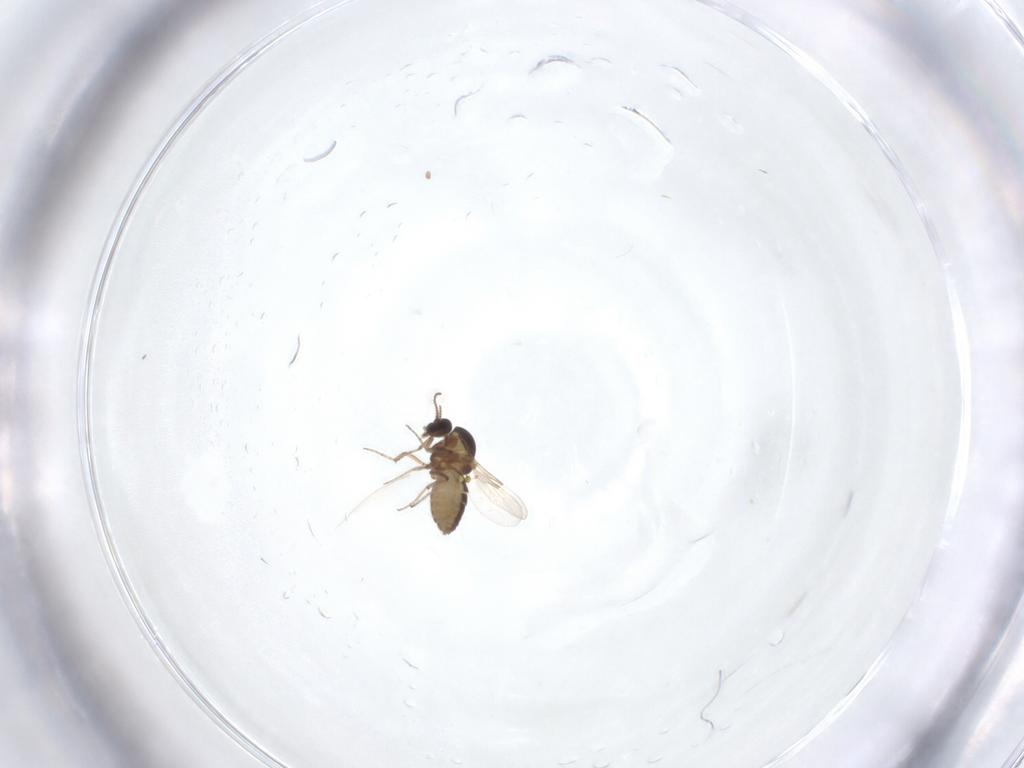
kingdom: Animalia
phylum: Arthropoda
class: Insecta
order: Diptera
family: Ceratopogonidae
